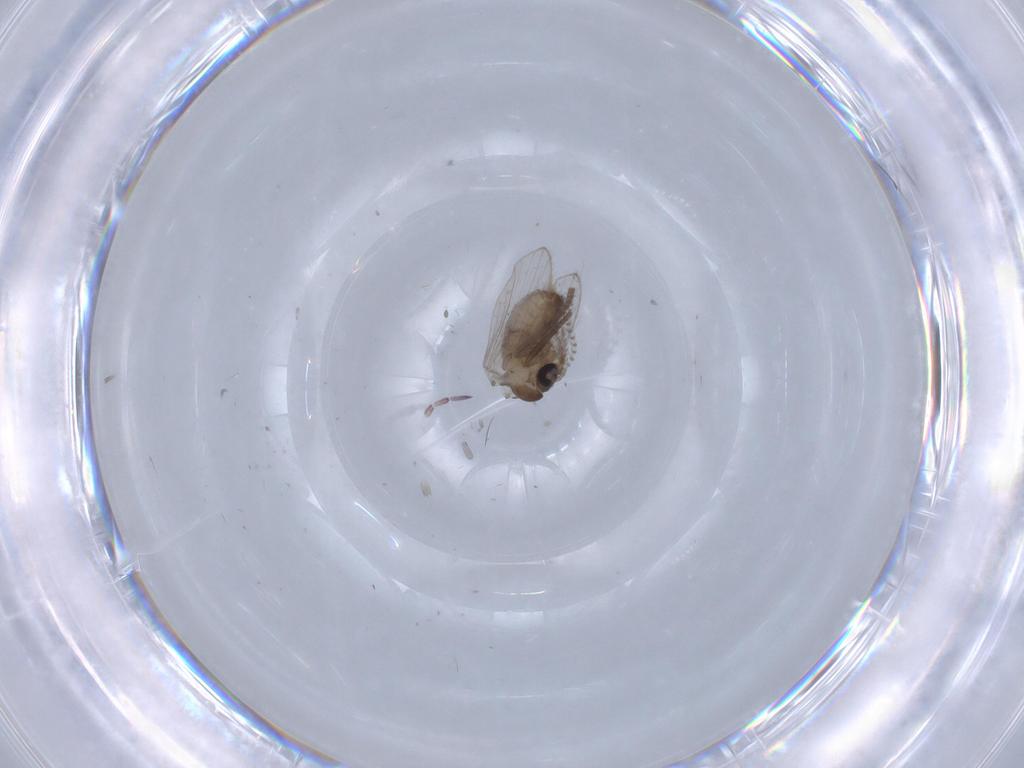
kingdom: Animalia
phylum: Arthropoda
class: Insecta
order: Diptera
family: Psychodidae
